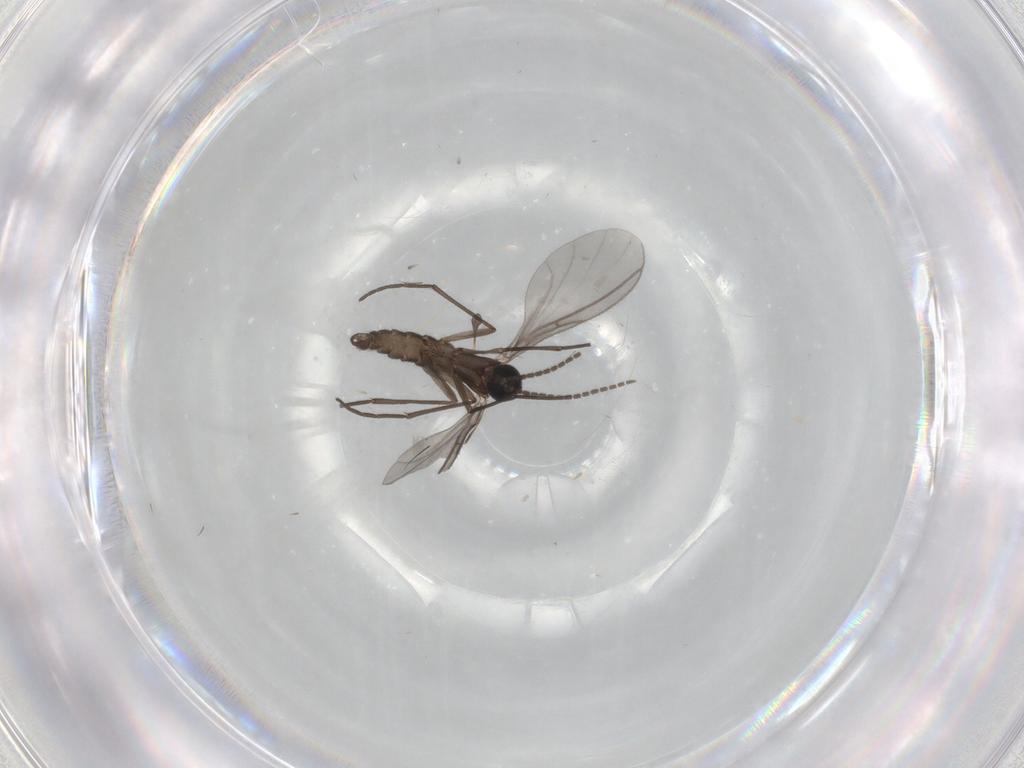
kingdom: Animalia
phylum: Arthropoda
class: Insecta
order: Diptera
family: Sciaridae
